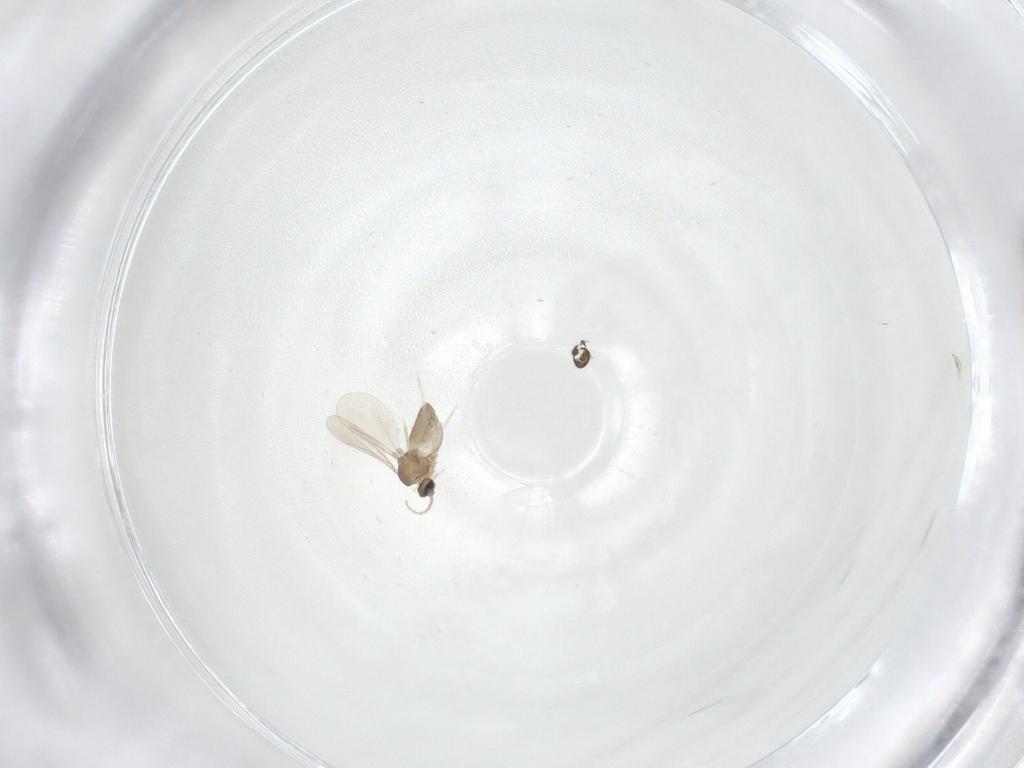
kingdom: Animalia
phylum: Arthropoda
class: Insecta
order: Diptera
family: Cecidomyiidae
